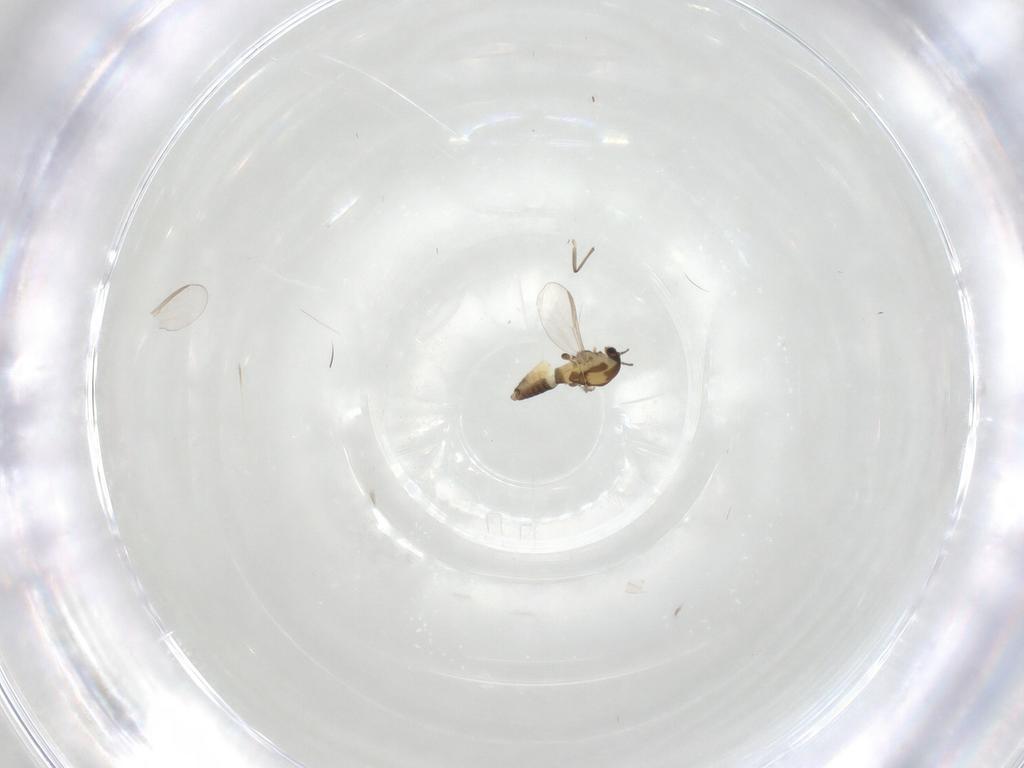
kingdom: Animalia
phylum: Arthropoda
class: Insecta
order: Diptera
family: Chironomidae
